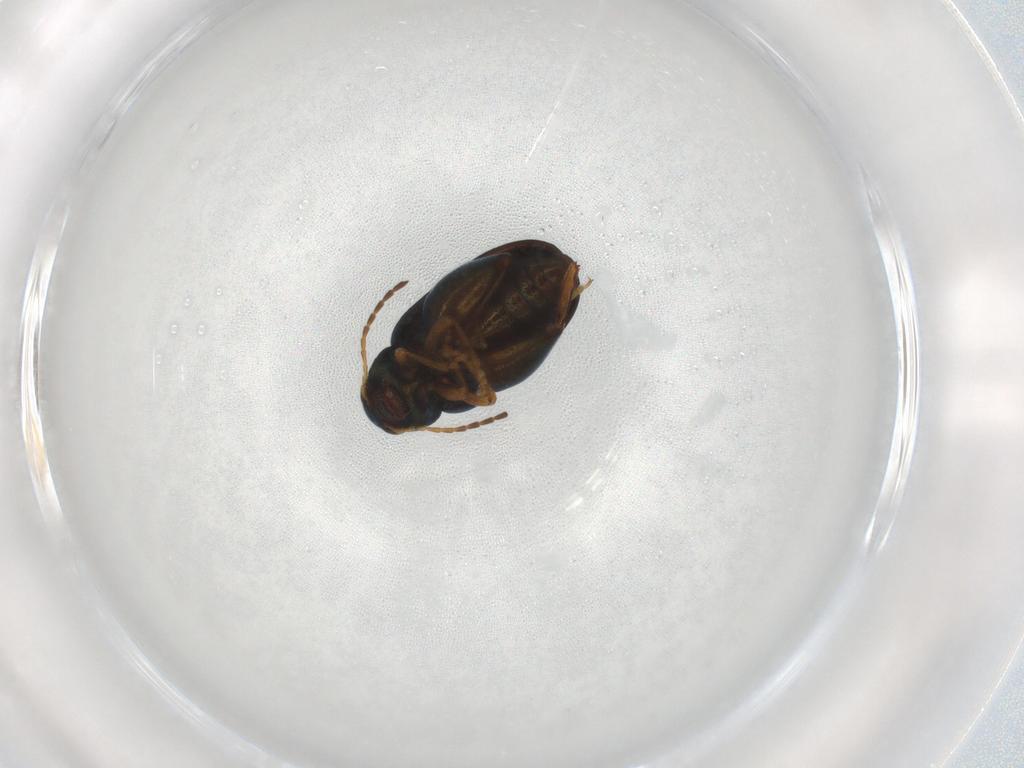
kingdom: Animalia
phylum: Arthropoda
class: Insecta
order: Coleoptera
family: Chrysomelidae
